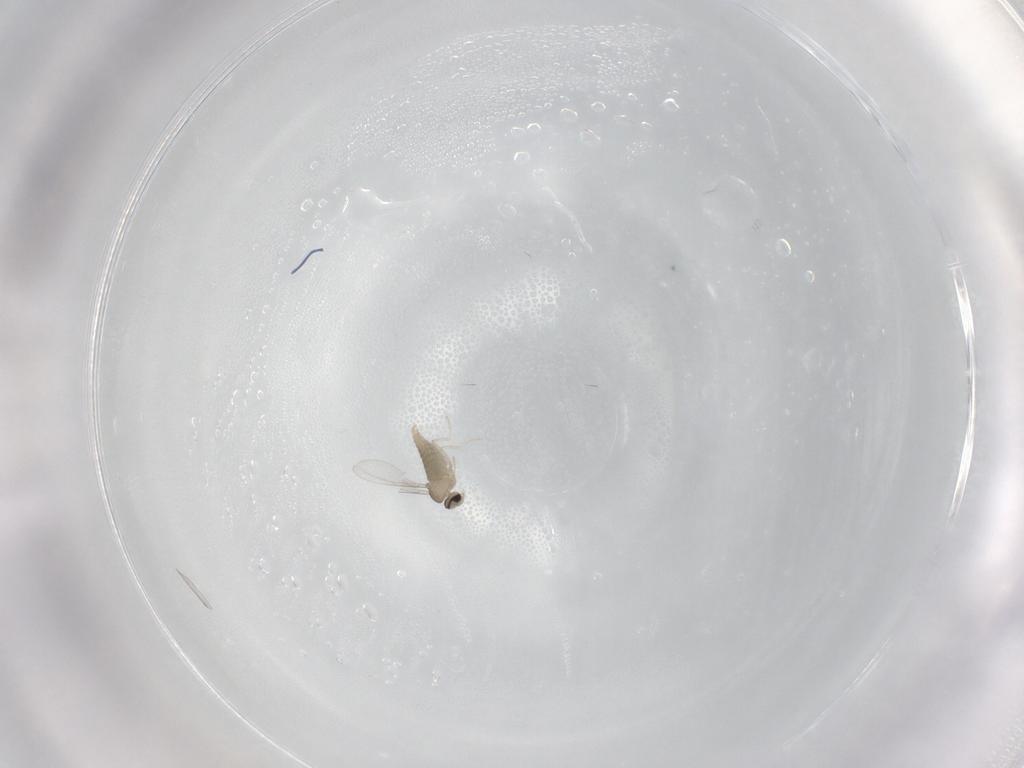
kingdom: Animalia
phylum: Arthropoda
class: Insecta
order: Diptera
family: Cecidomyiidae
